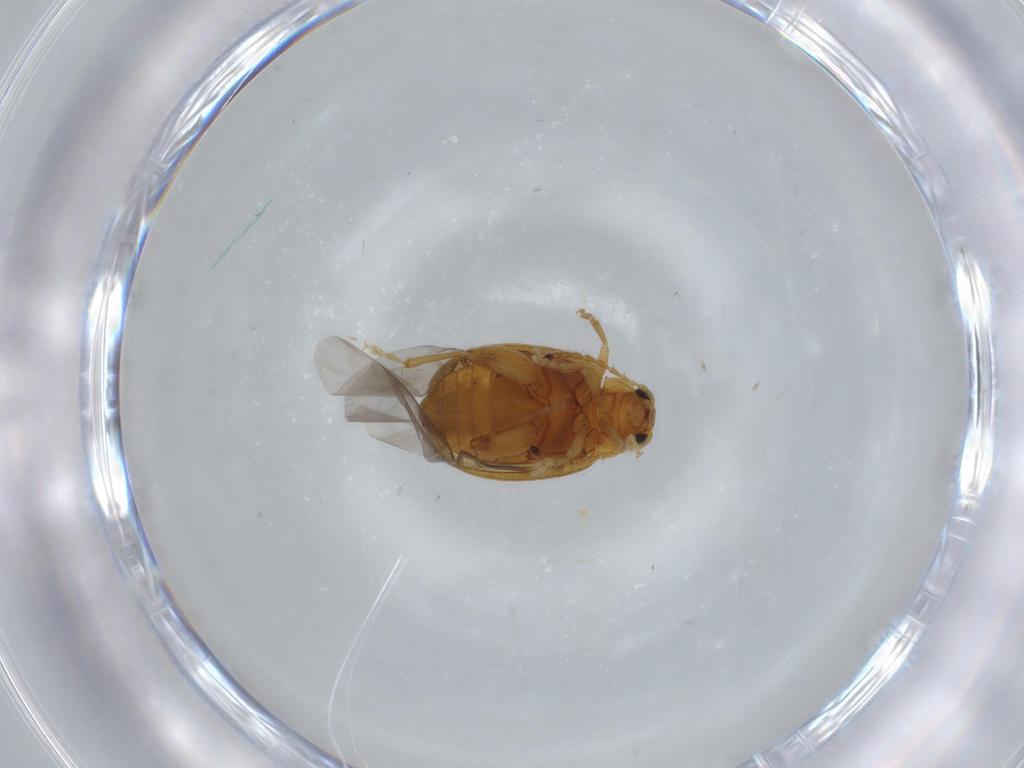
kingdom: Animalia
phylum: Arthropoda
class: Insecta
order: Coleoptera
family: Chrysomelidae
